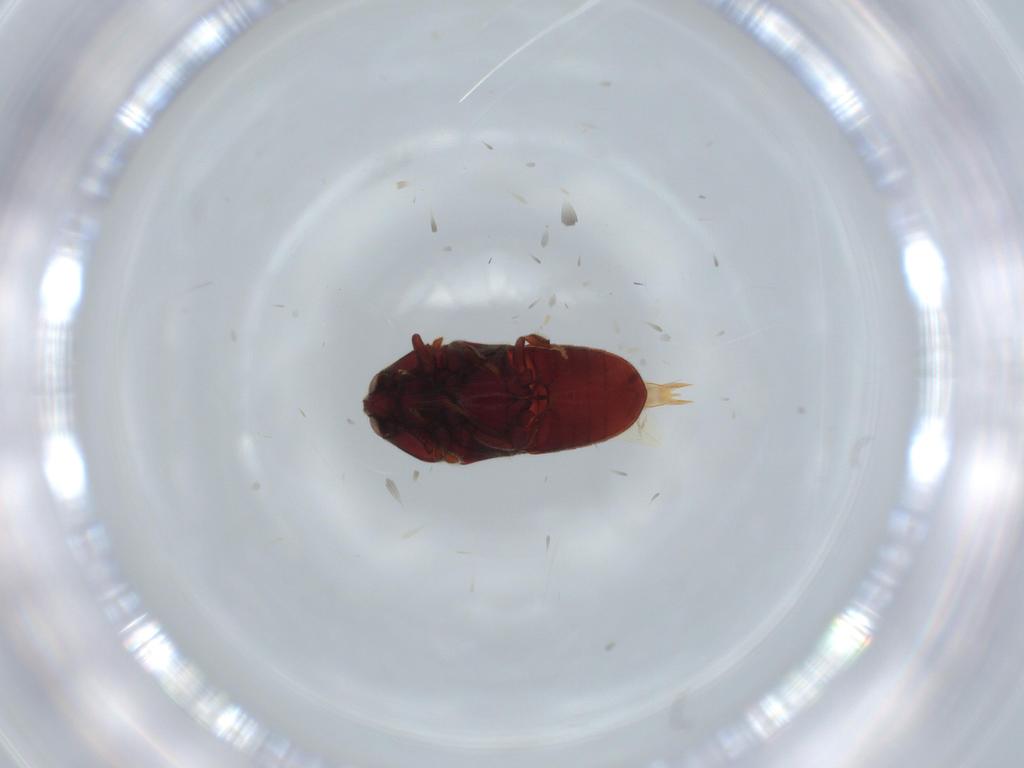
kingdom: Animalia
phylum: Arthropoda
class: Insecta
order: Coleoptera
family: Throscidae
